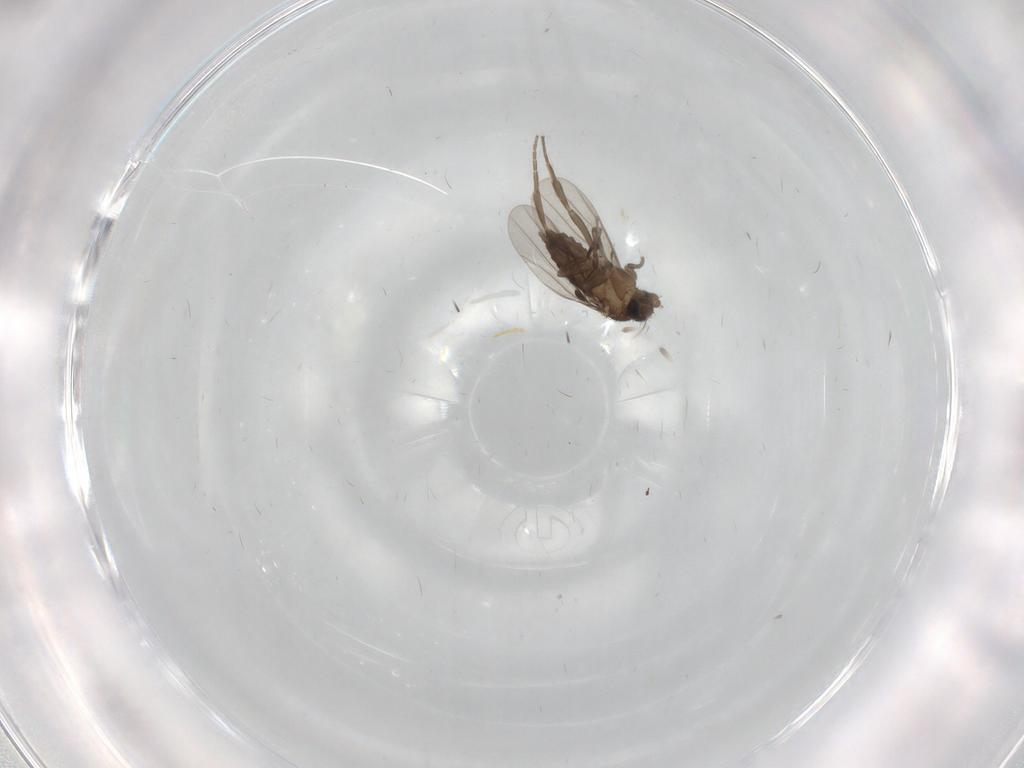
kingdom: Animalia
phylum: Arthropoda
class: Insecta
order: Diptera
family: Phoridae
